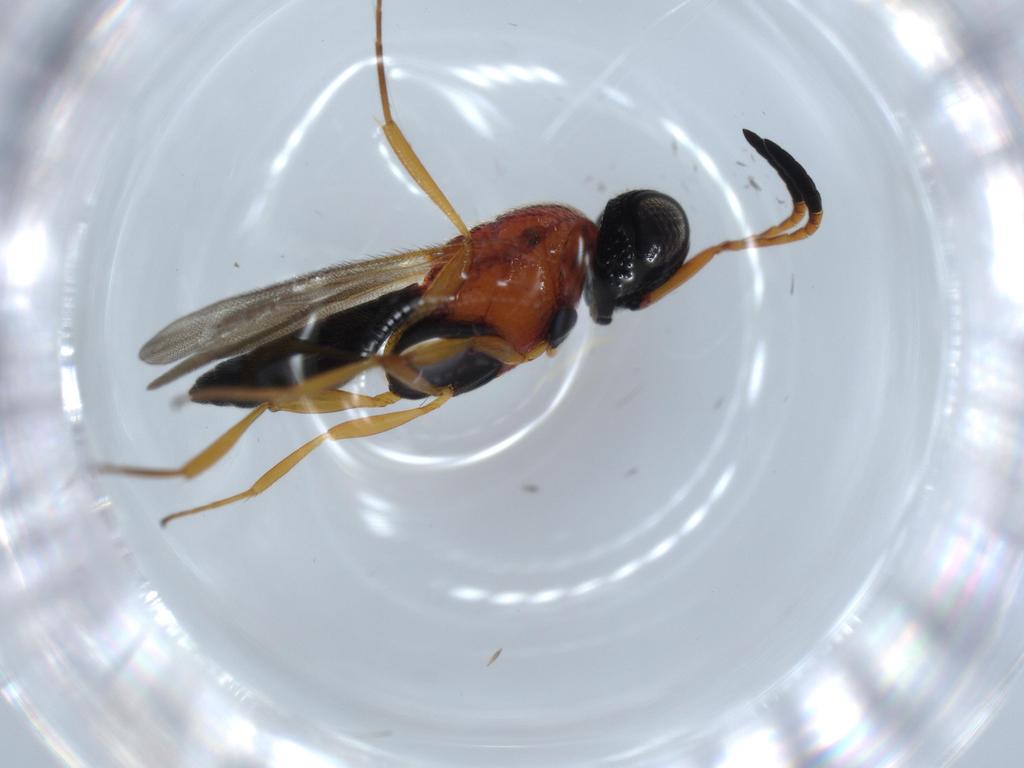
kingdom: Animalia
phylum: Arthropoda
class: Insecta
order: Hymenoptera
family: Scelionidae
